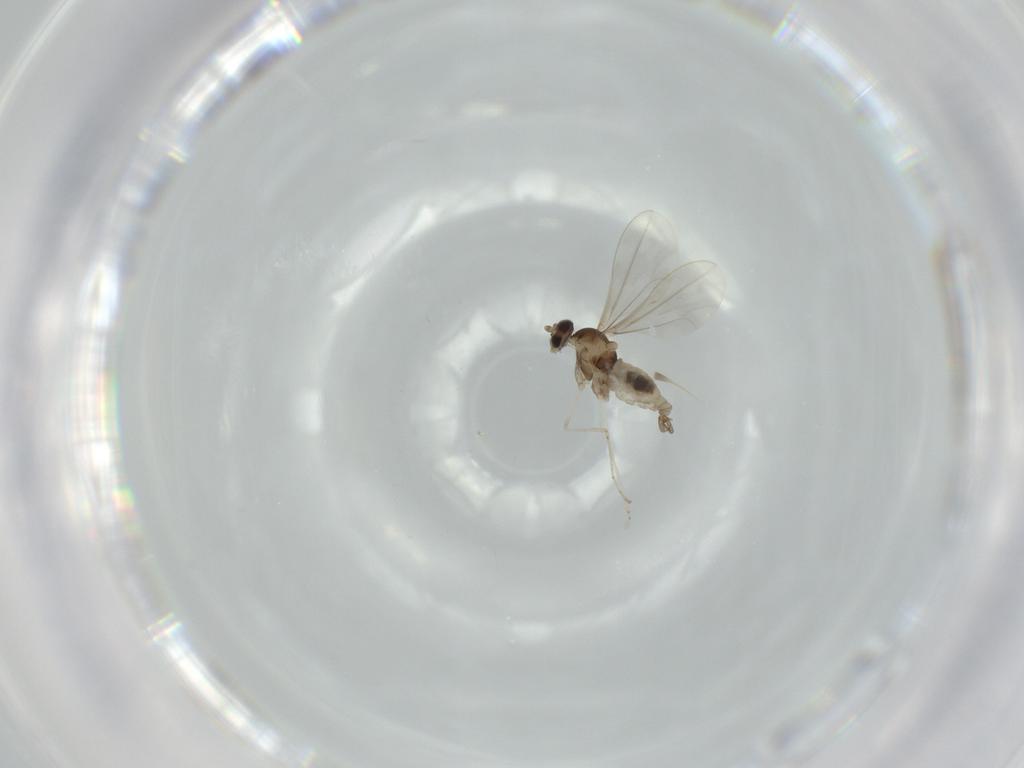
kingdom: Animalia
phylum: Arthropoda
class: Insecta
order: Diptera
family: Cecidomyiidae
